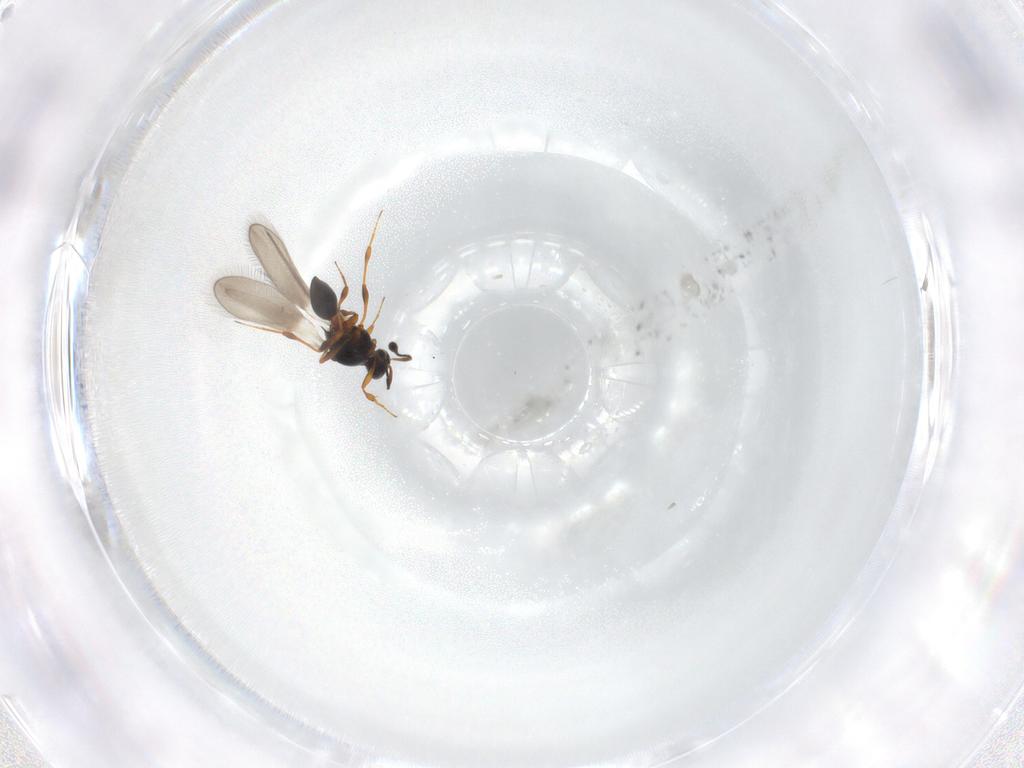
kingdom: Animalia
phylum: Arthropoda
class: Insecta
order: Hymenoptera
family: Platygastridae
